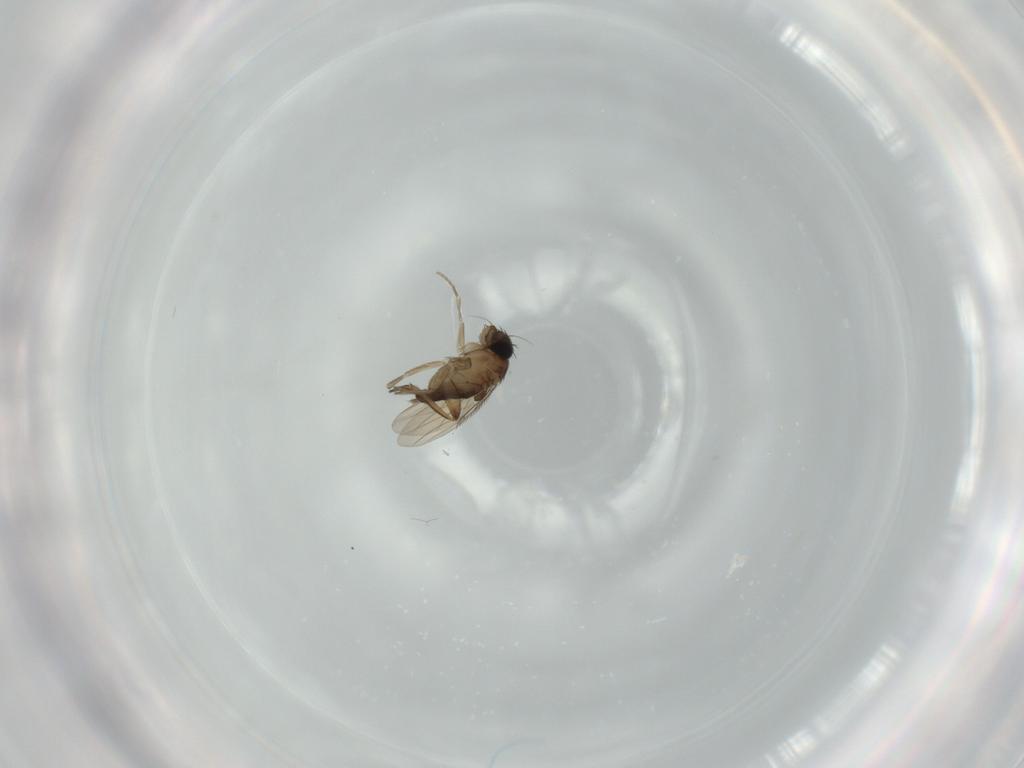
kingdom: Animalia
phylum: Arthropoda
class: Insecta
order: Diptera
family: Phoridae
